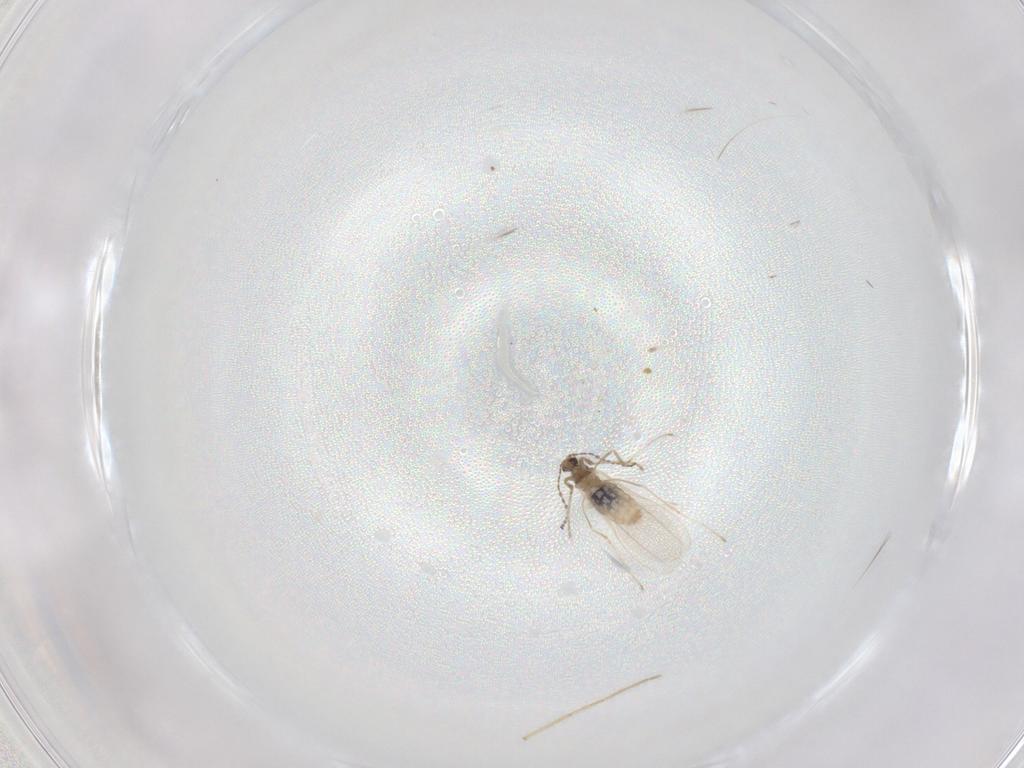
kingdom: Animalia
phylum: Arthropoda
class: Insecta
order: Diptera
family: Cecidomyiidae
